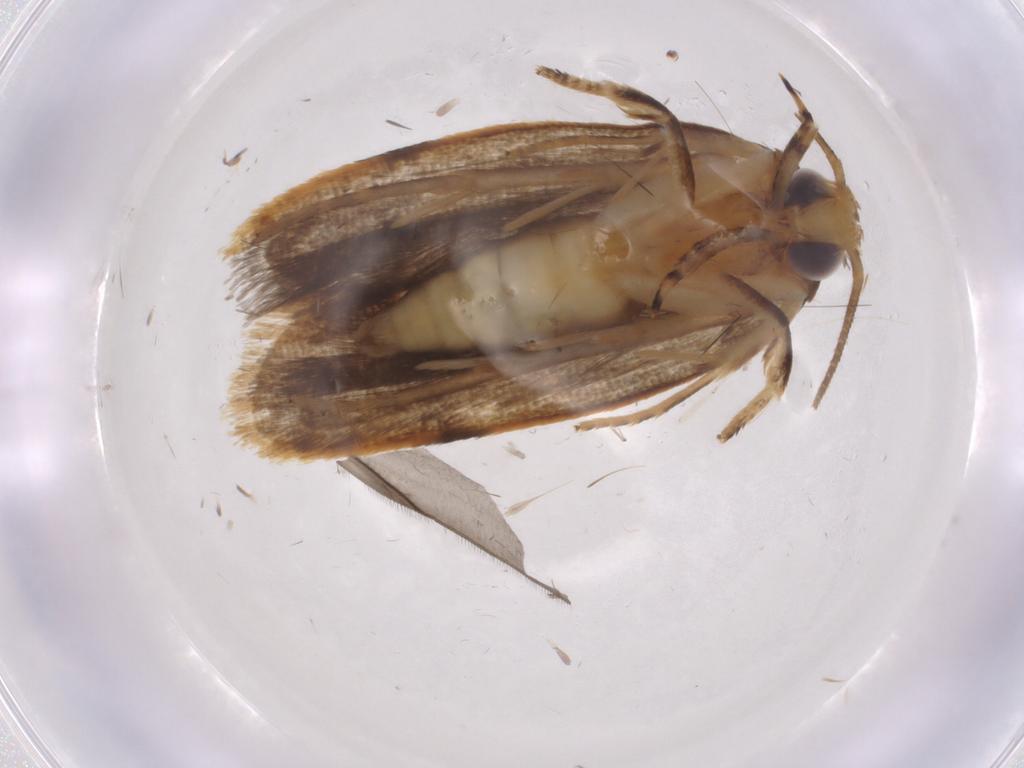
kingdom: Animalia
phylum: Arthropoda
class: Insecta
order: Lepidoptera
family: Depressariidae
